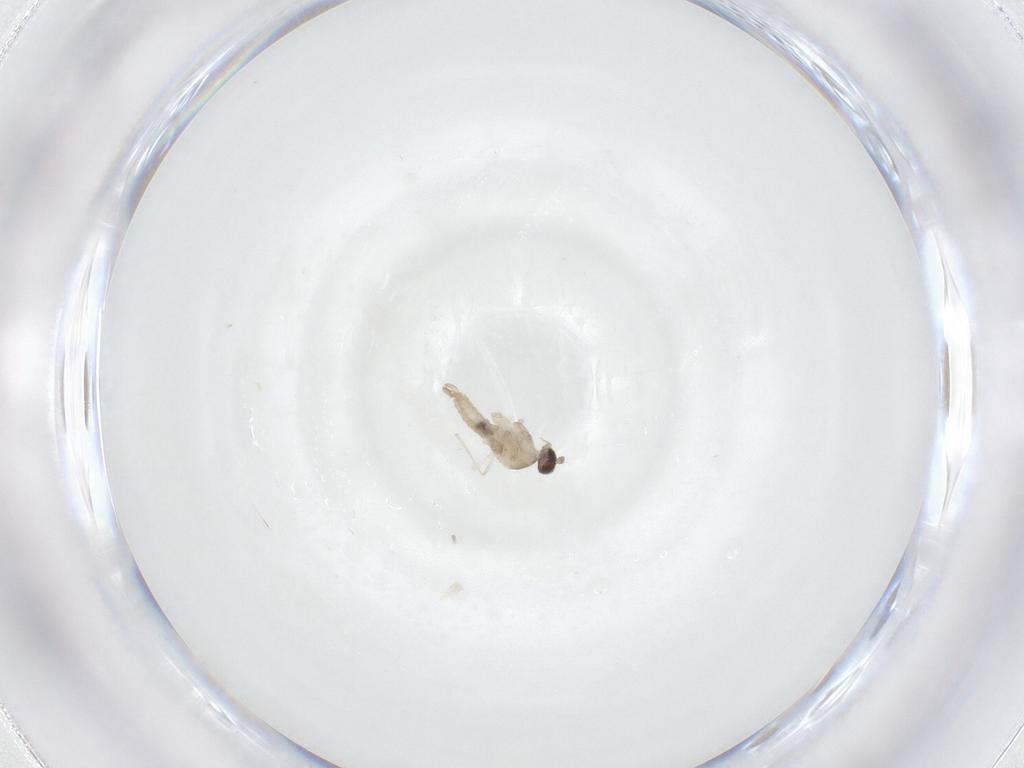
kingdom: Animalia
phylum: Arthropoda
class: Insecta
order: Diptera
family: Cecidomyiidae
